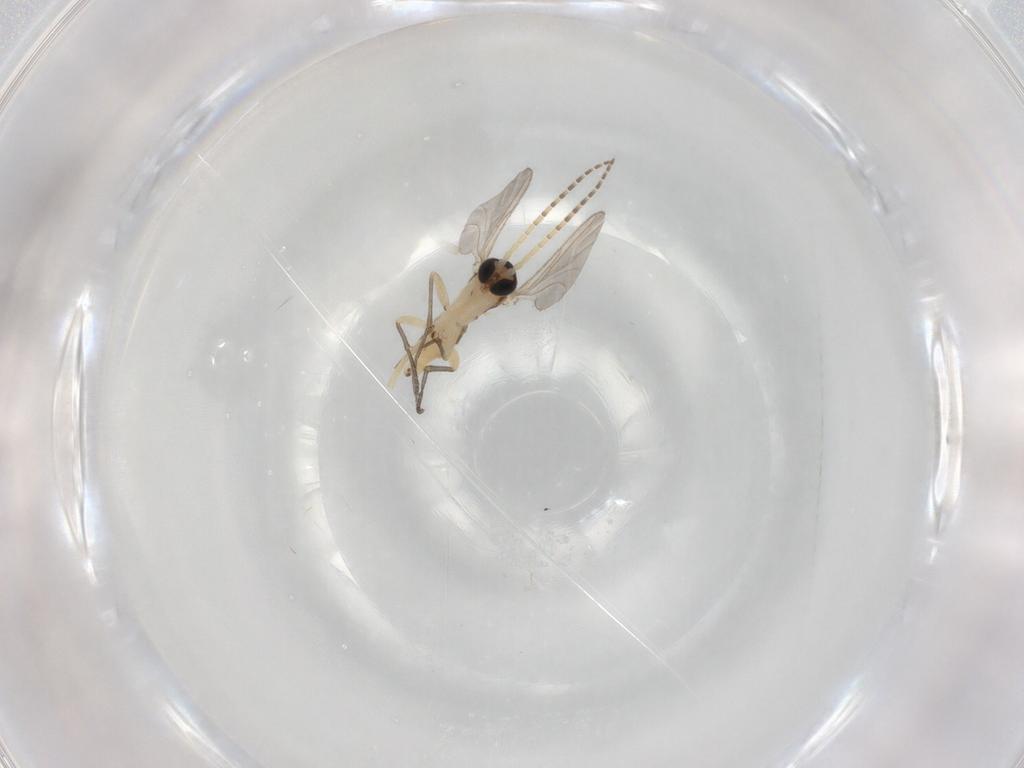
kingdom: Animalia
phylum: Arthropoda
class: Insecta
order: Diptera
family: Sciaridae
